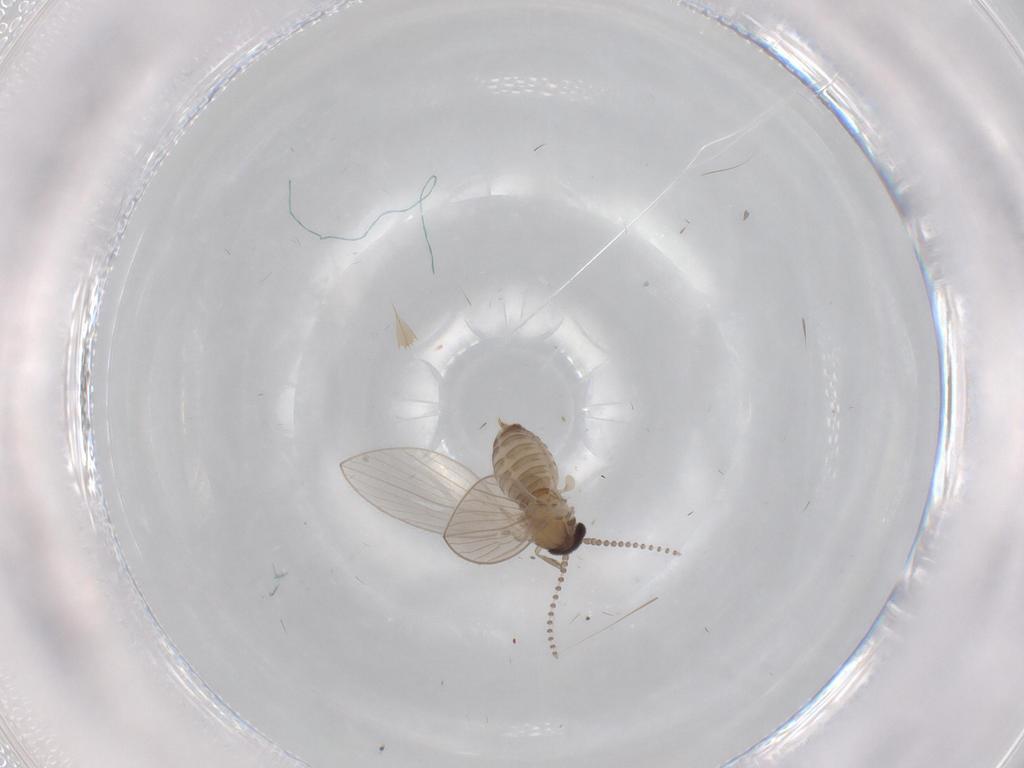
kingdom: Animalia
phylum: Arthropoda
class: Insecta
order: Diptera
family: Psychodidae
